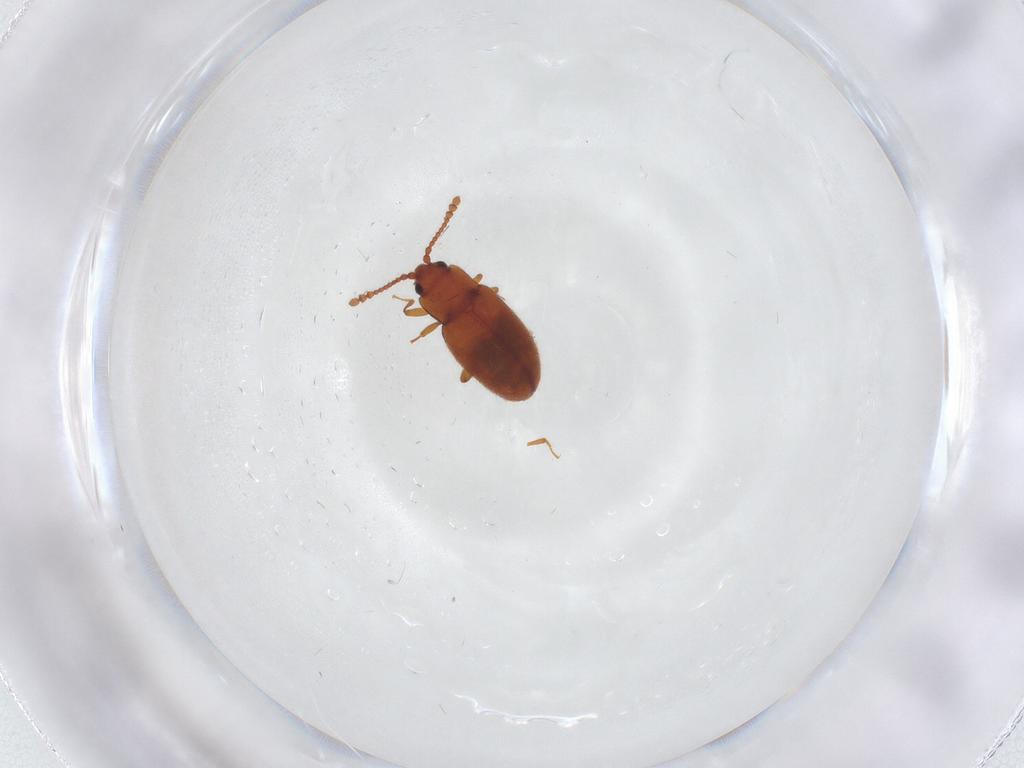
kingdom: Animalia
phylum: Arthropoda
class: Insecta
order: Coleoptera
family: Cryptophagidae
